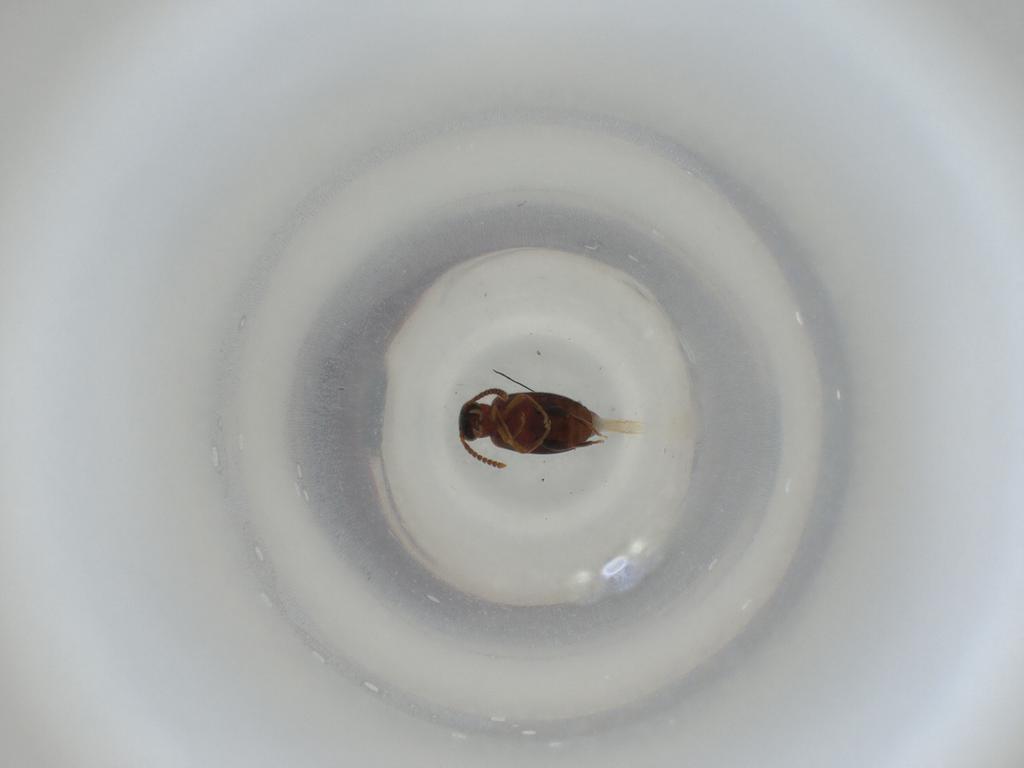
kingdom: Animalia
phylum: Arthropoda
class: Insecta
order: Coleoptera
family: Aderidae
